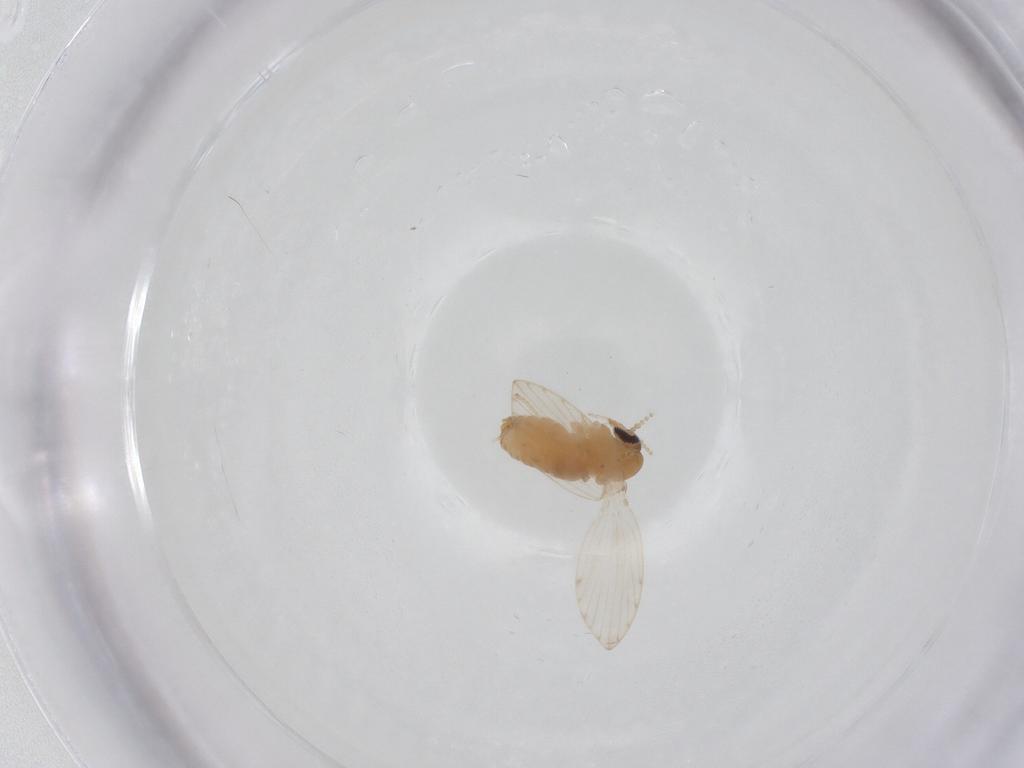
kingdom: Animalia
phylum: Arthropoda
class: Insecta
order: Diptera
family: Psychodidae
